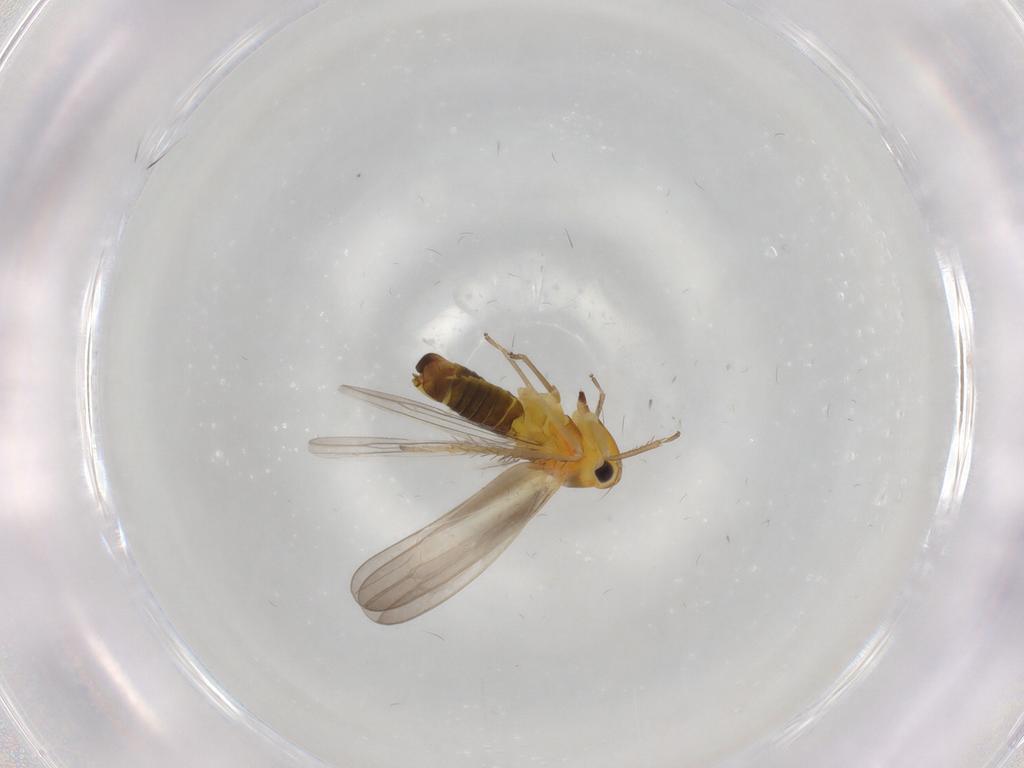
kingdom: Animalia
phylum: Arthropoda
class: Insecta
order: Hemiptera
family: Cicadellidae
